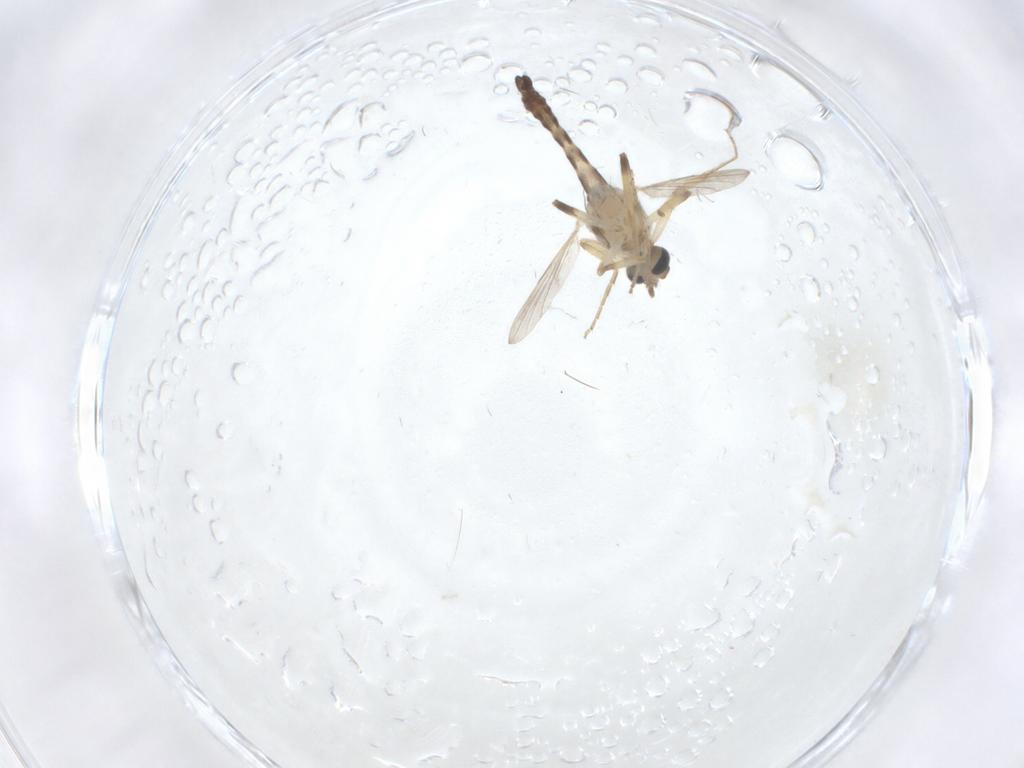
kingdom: Animalia
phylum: Arthropoda
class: Insecta
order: Diptera
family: Ceratopogonidae
